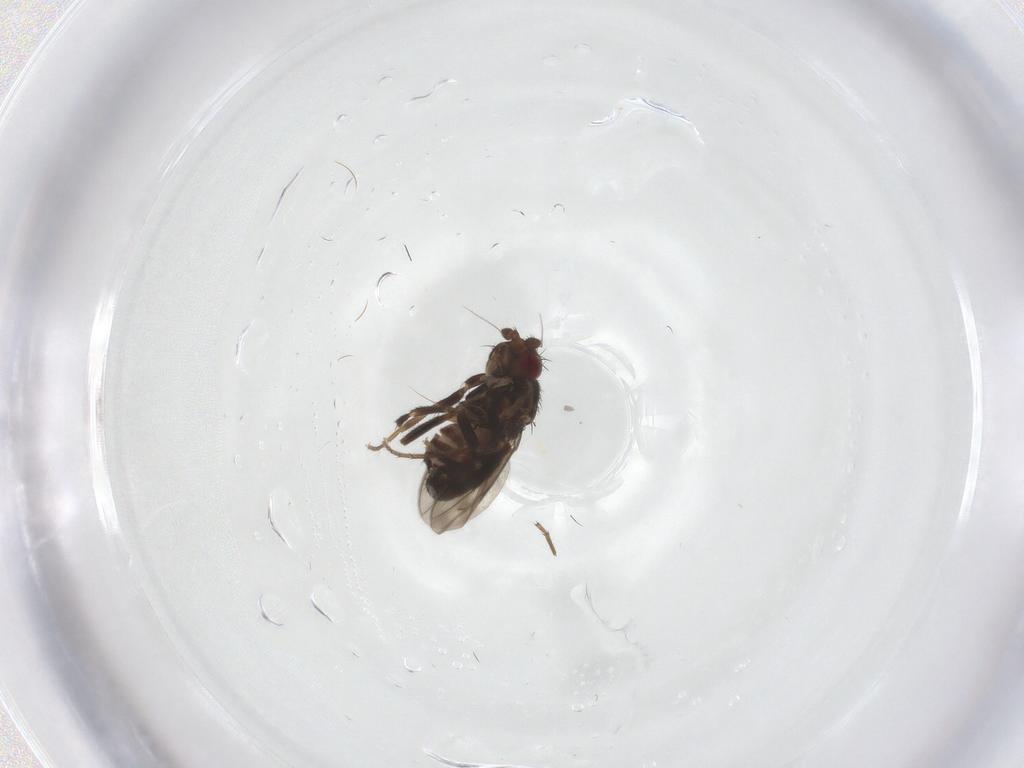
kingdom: Animalia
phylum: Arthropoda
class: Insecta
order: Diptera
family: Sphaeroceridae
